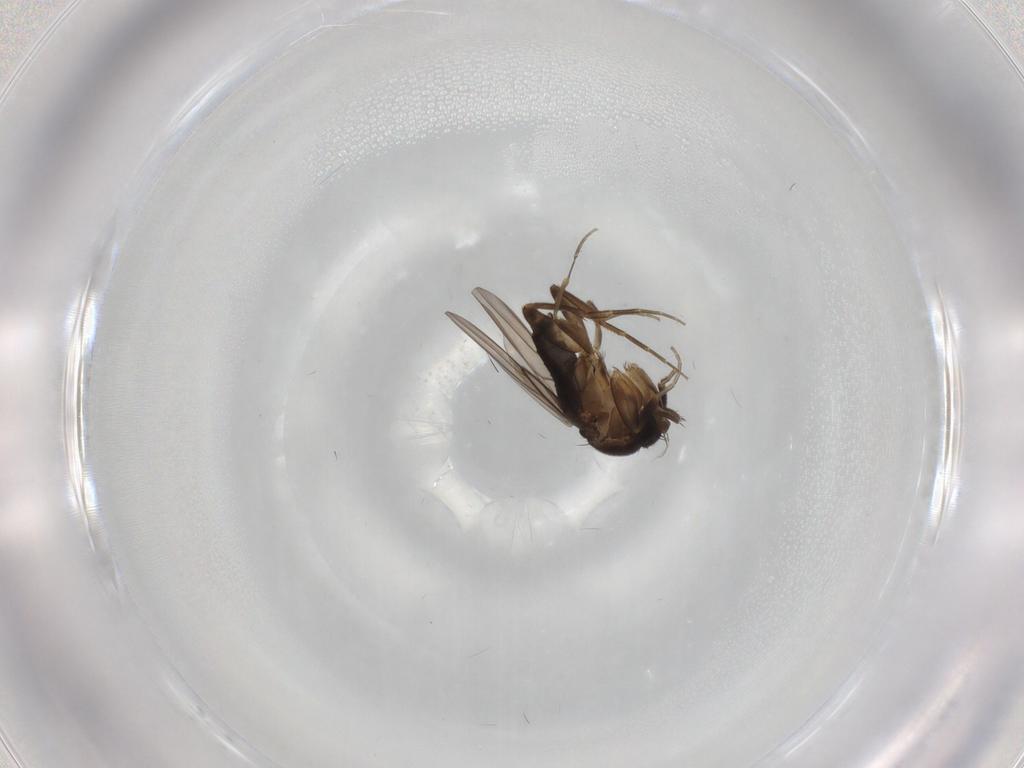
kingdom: Animalia
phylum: Arthropoda
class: Insecta
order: Diptera
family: Phoridae
